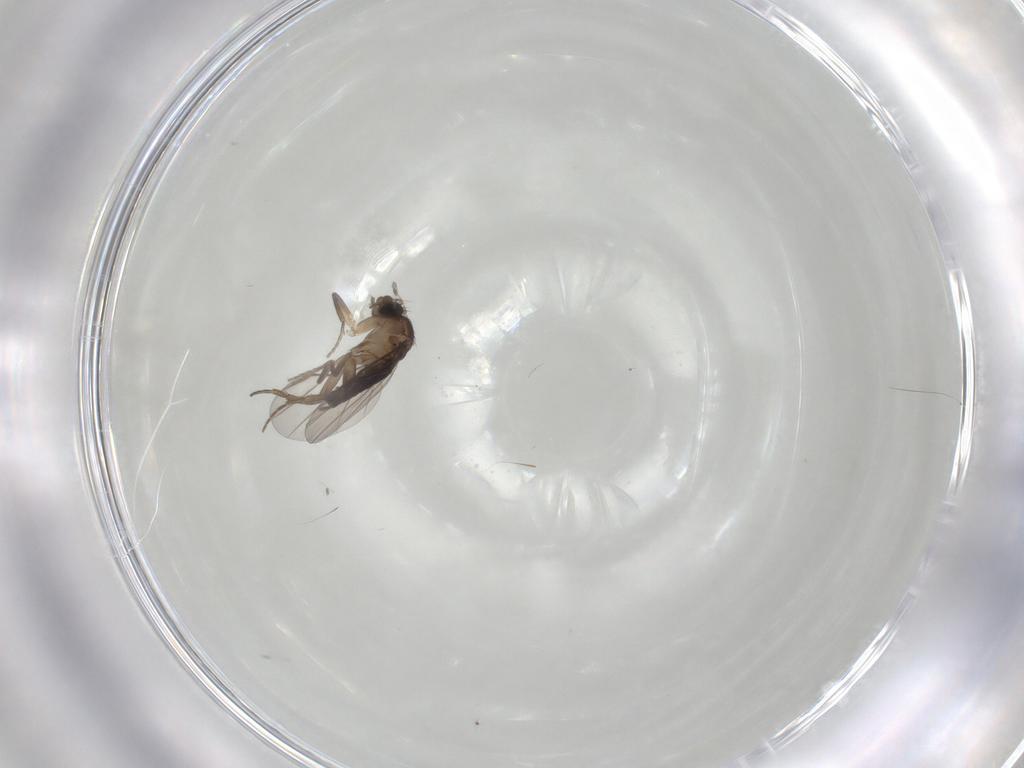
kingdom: Animalia
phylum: Arthropoda
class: Insecta
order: Diptera
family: Phoridae
